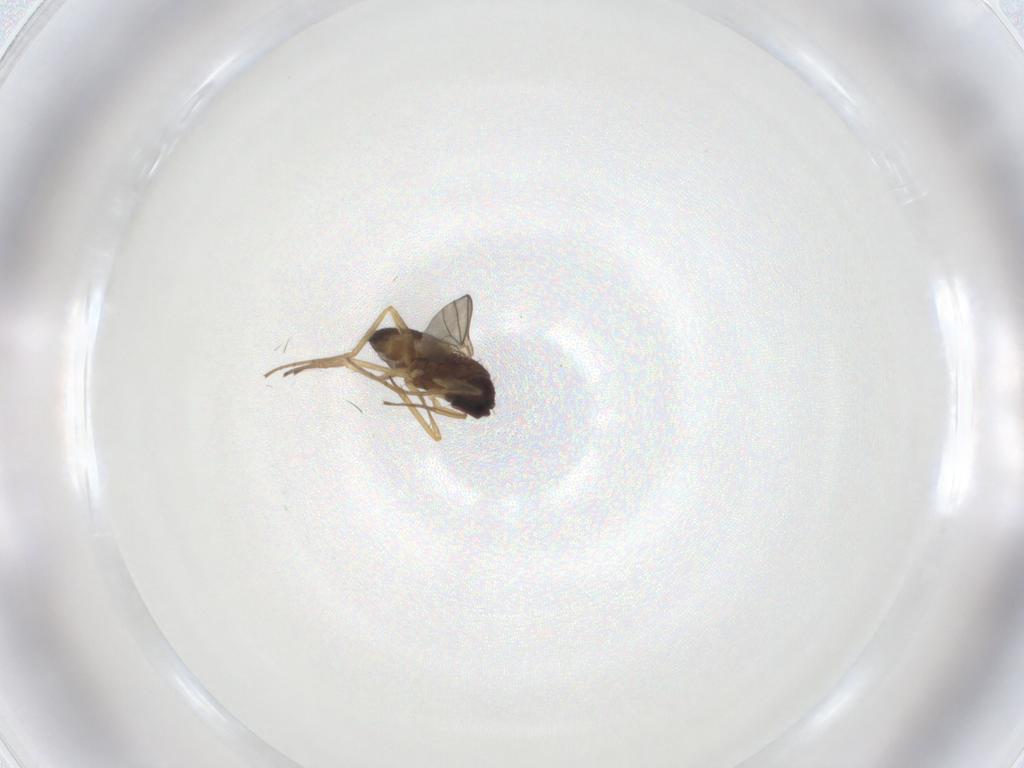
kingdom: Animalia
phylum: Arthropoda
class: Insecta
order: Diptera
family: Dolichopodidae
